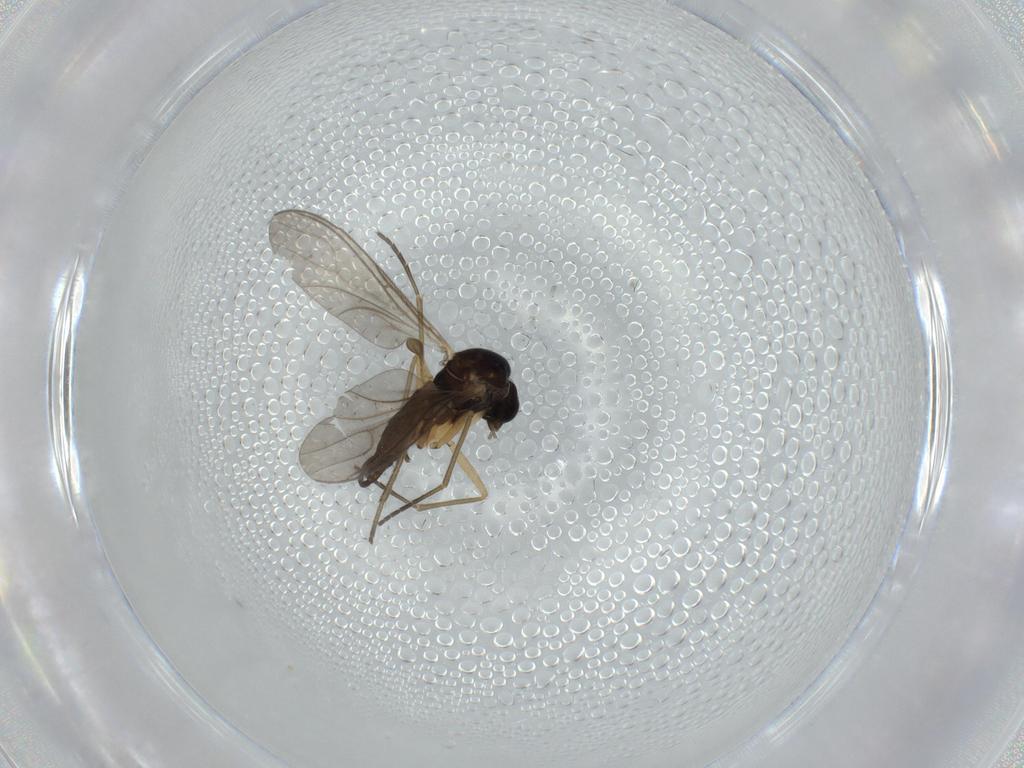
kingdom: Animalia
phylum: Arthropoda
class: Insecta
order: Diptera
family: Sciaridae
